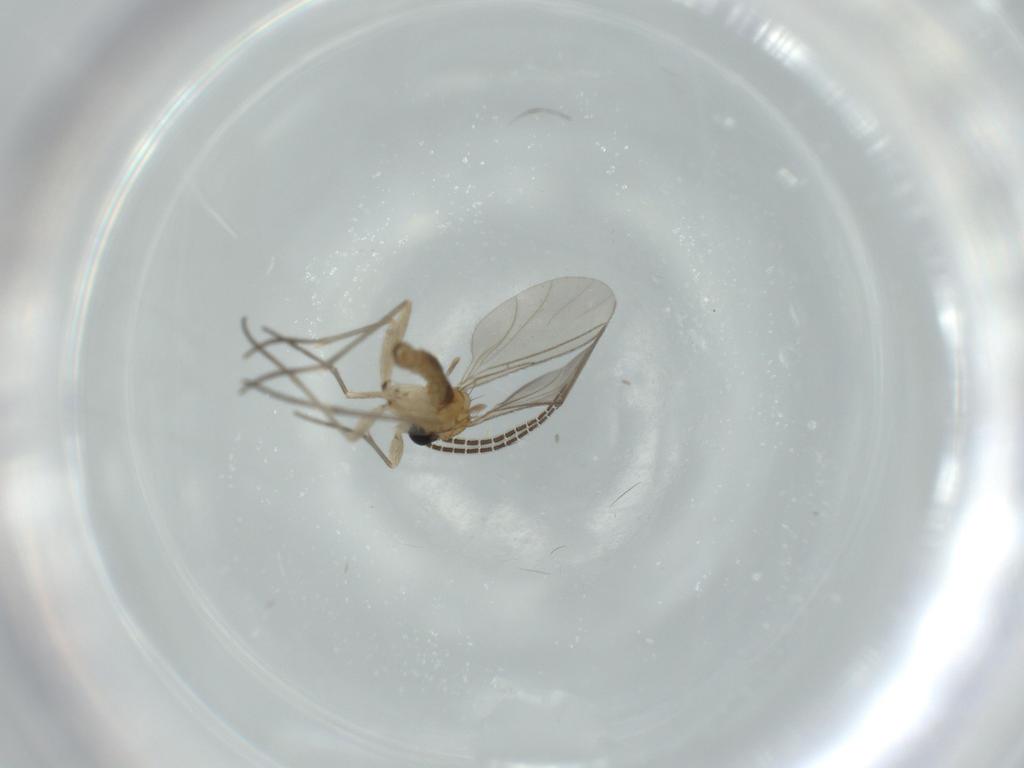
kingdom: Animalia
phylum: Arthropoda
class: Insecta
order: Diptera
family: Sciaridae
